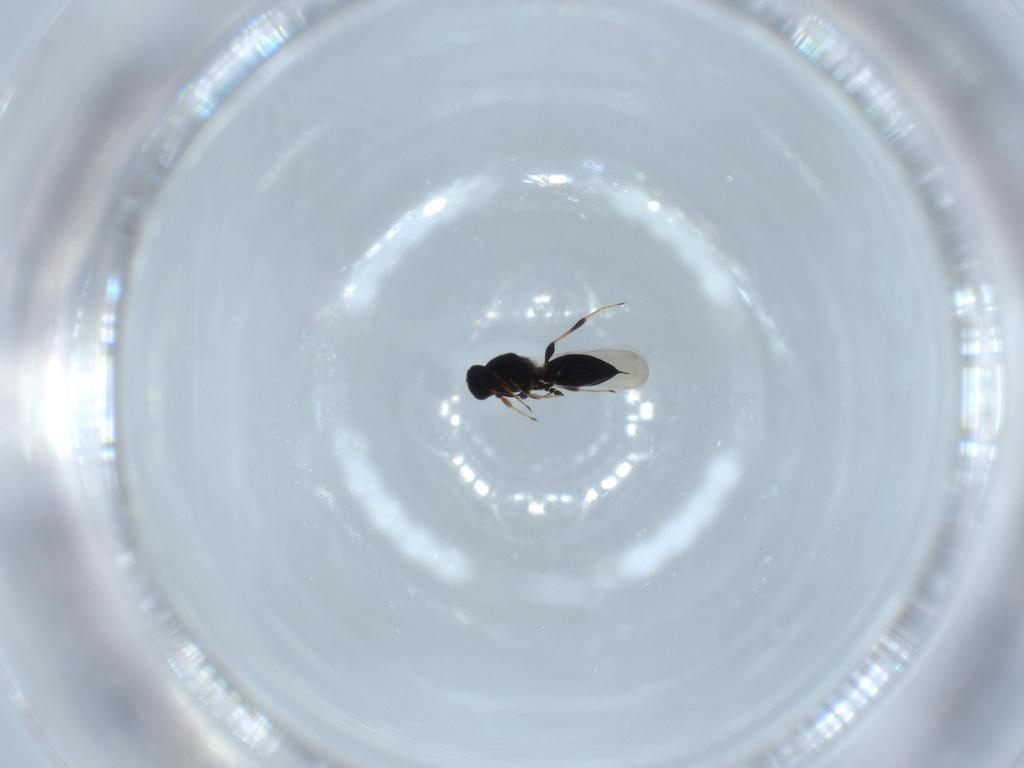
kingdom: Animalia
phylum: Arthropoda
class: Insecta
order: Hymenoptera
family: Platygastridae
